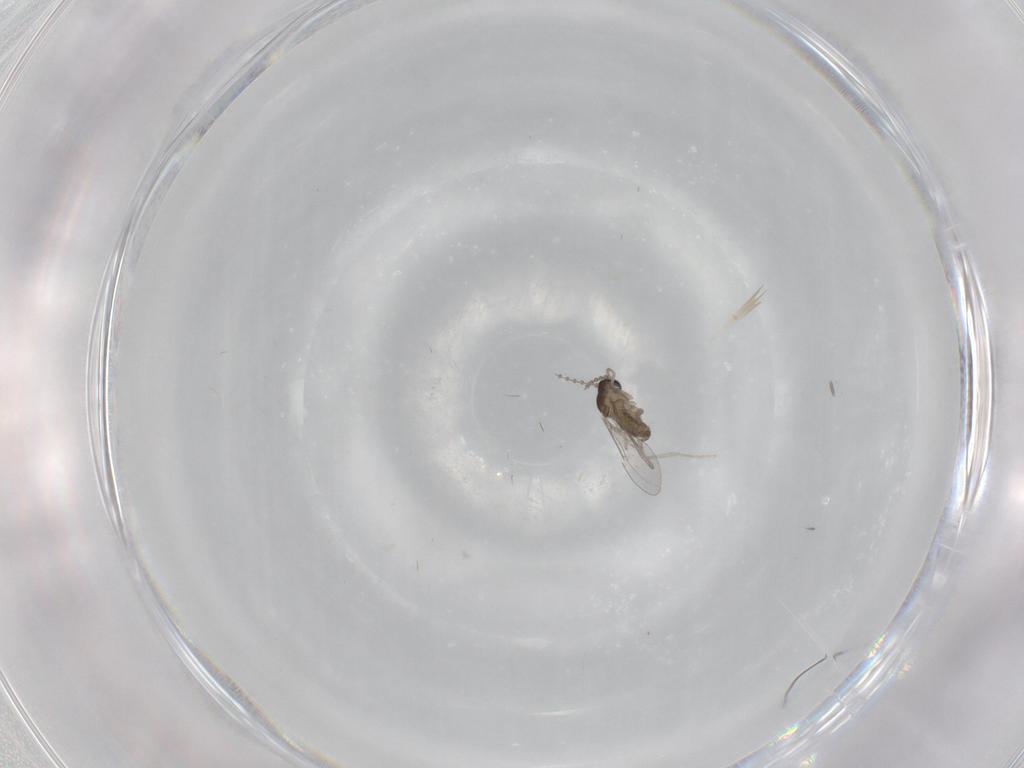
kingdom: Animalia
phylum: Arthropoda
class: Insecta
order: Diptera
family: Cecidomyiidae
